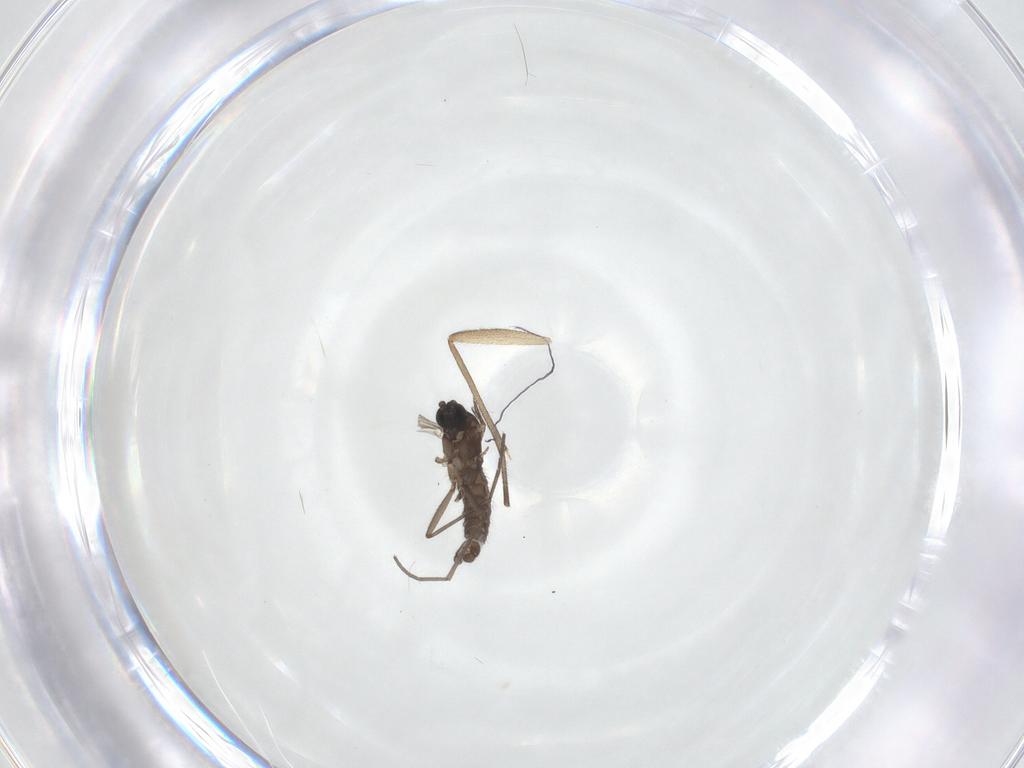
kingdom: Animalia
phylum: Arthropoda
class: Insecta
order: Diptera
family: Sciaridae
